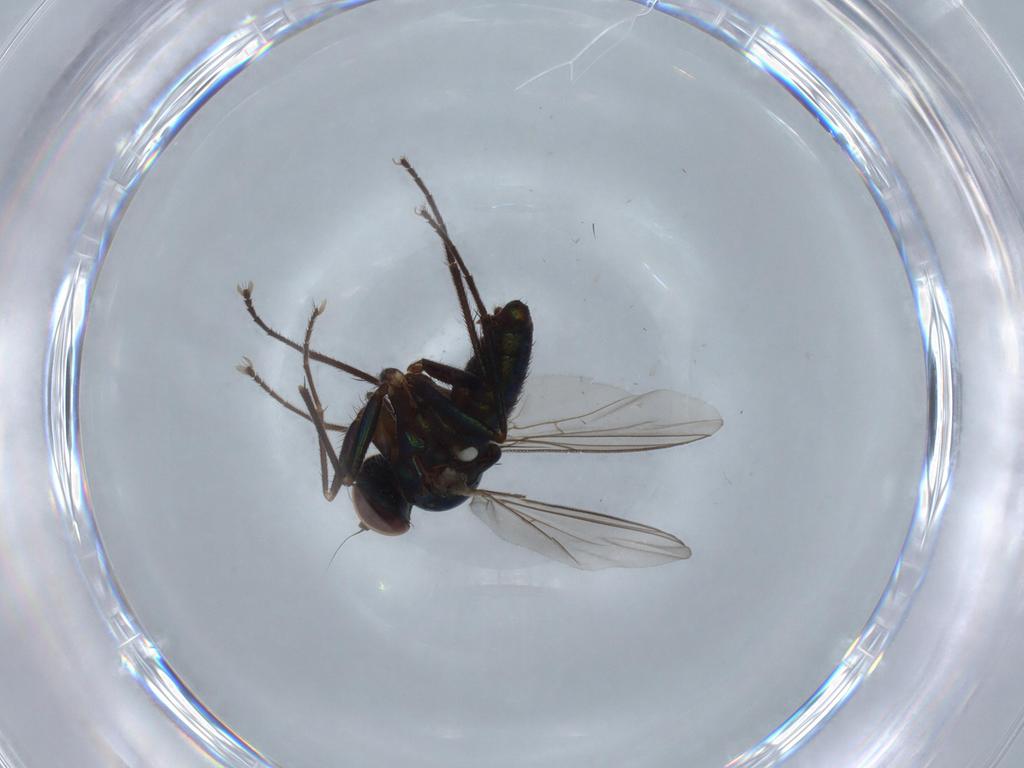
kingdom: Animalia
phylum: Arthropoda
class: Insecta
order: Diptera
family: Dolichopodidae
